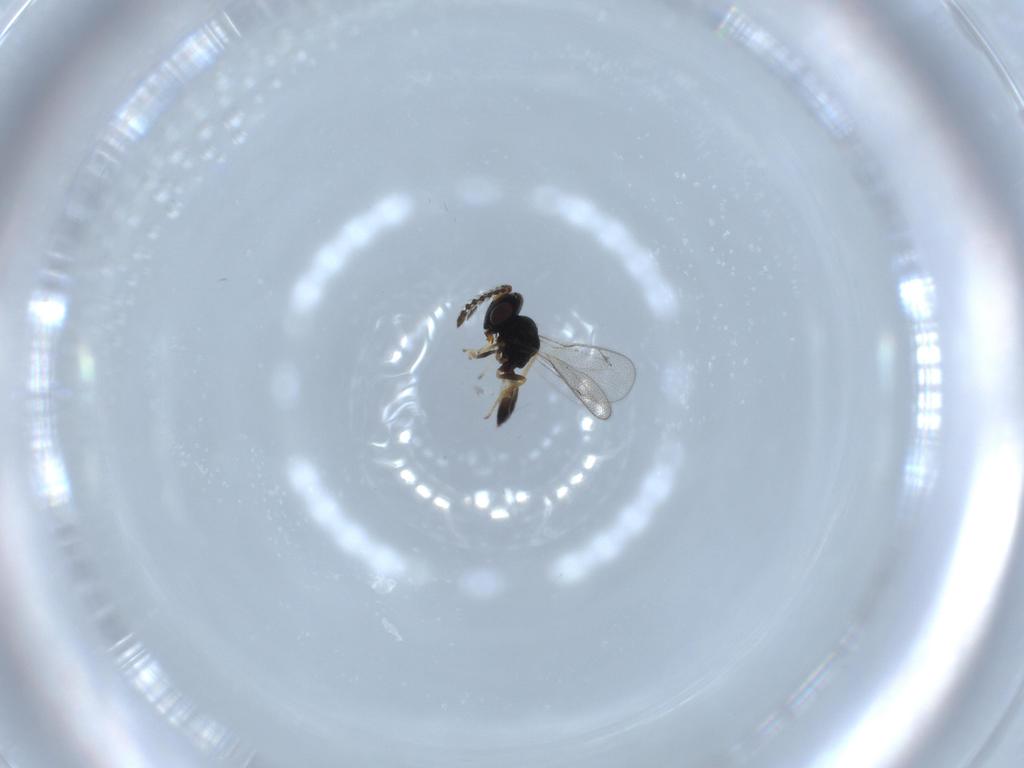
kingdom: Animalia
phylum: Arthropoda
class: Insecta
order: Hymenoptera
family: Pteromalidae
